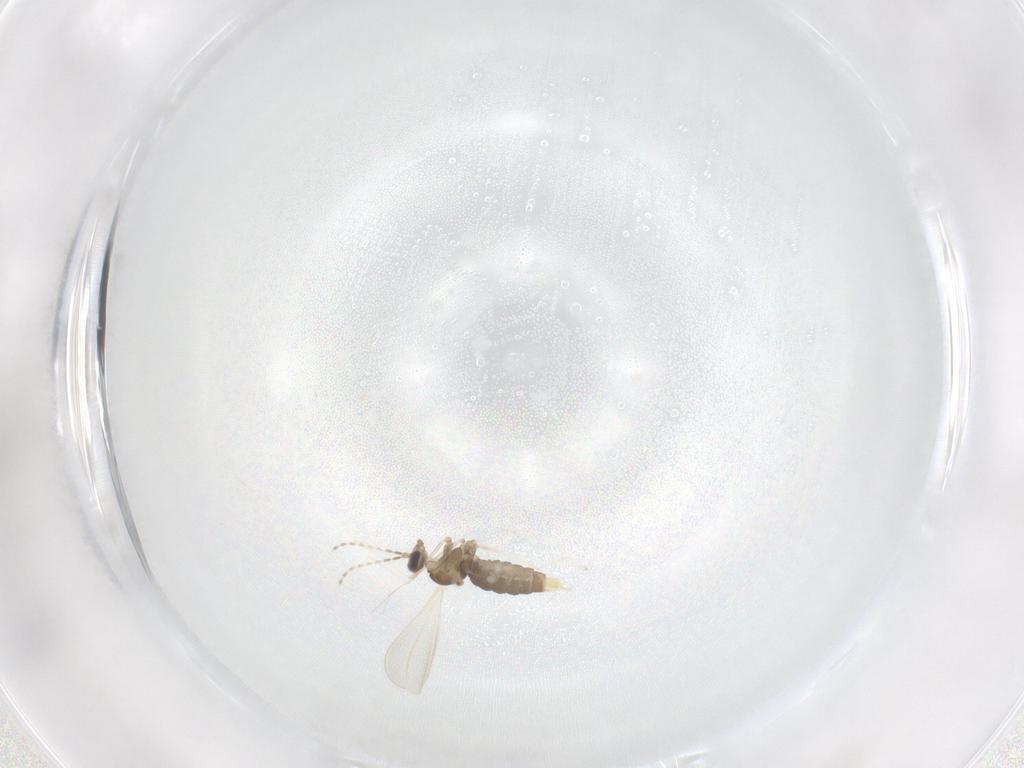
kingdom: Animalia
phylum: Arthropoda
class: Insecta
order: Diptera
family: Cecidomyiidae
